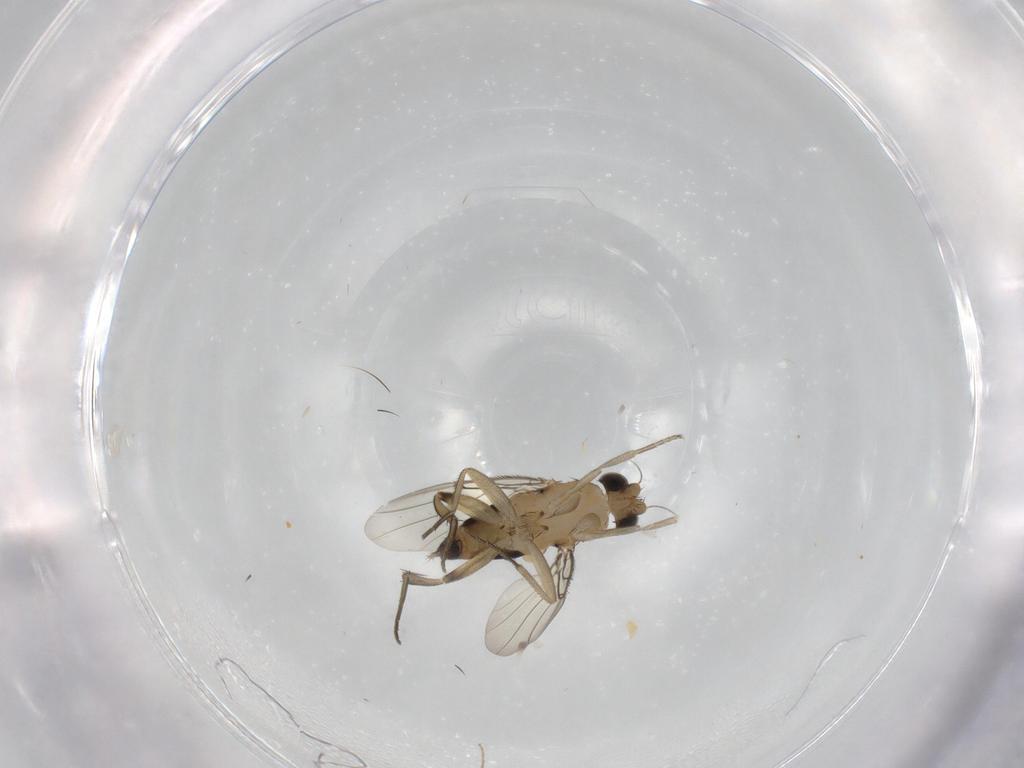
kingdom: Animalia
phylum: Arthropoda
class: Insecta
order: Diptera
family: Phoridae
